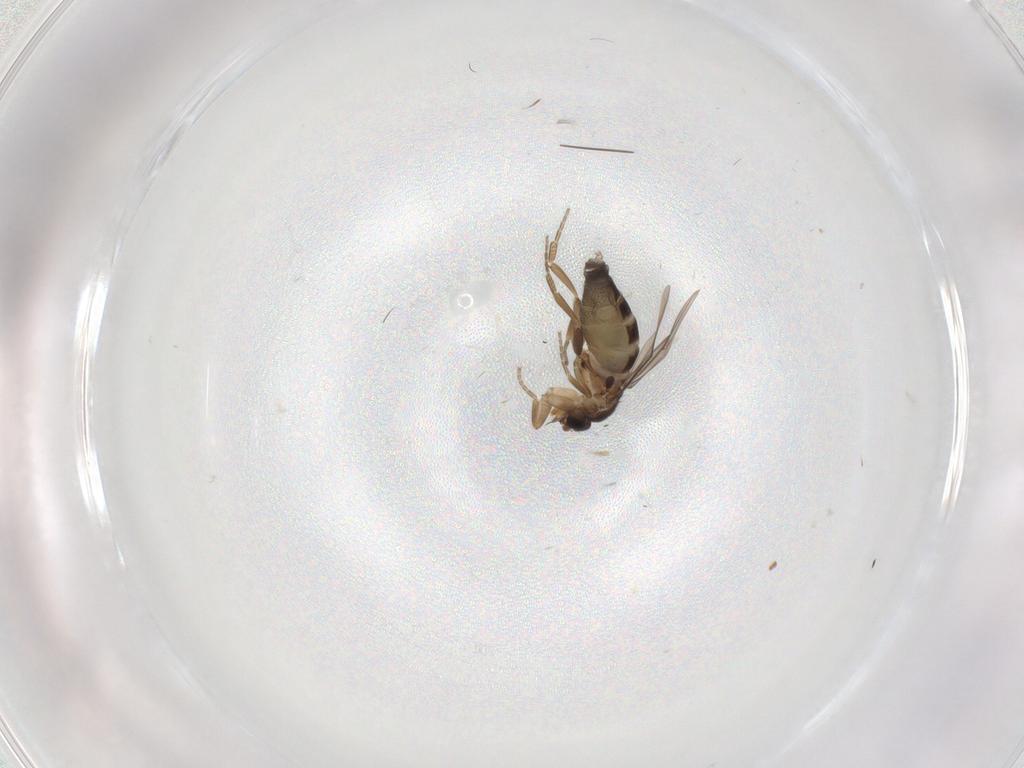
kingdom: Animalia
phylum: Arthropoda
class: Insecta
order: Diptera
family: Phoridae
